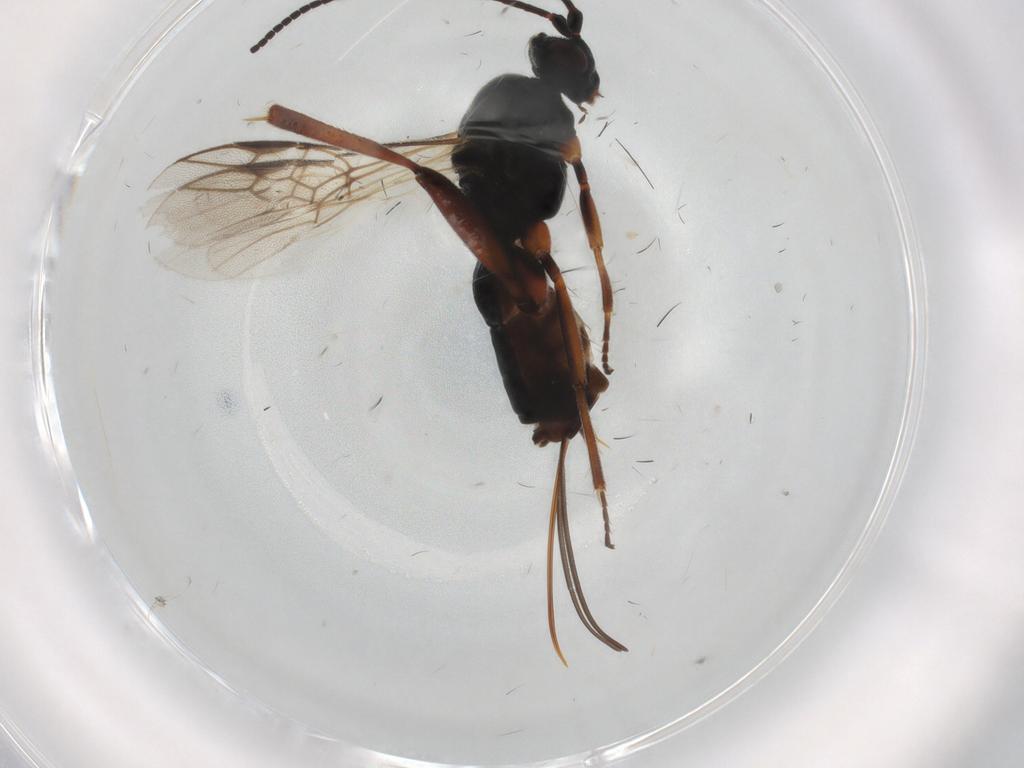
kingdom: Animalia
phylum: Arthropoda
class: Insecta
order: Hymenoptera
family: Braconidae
